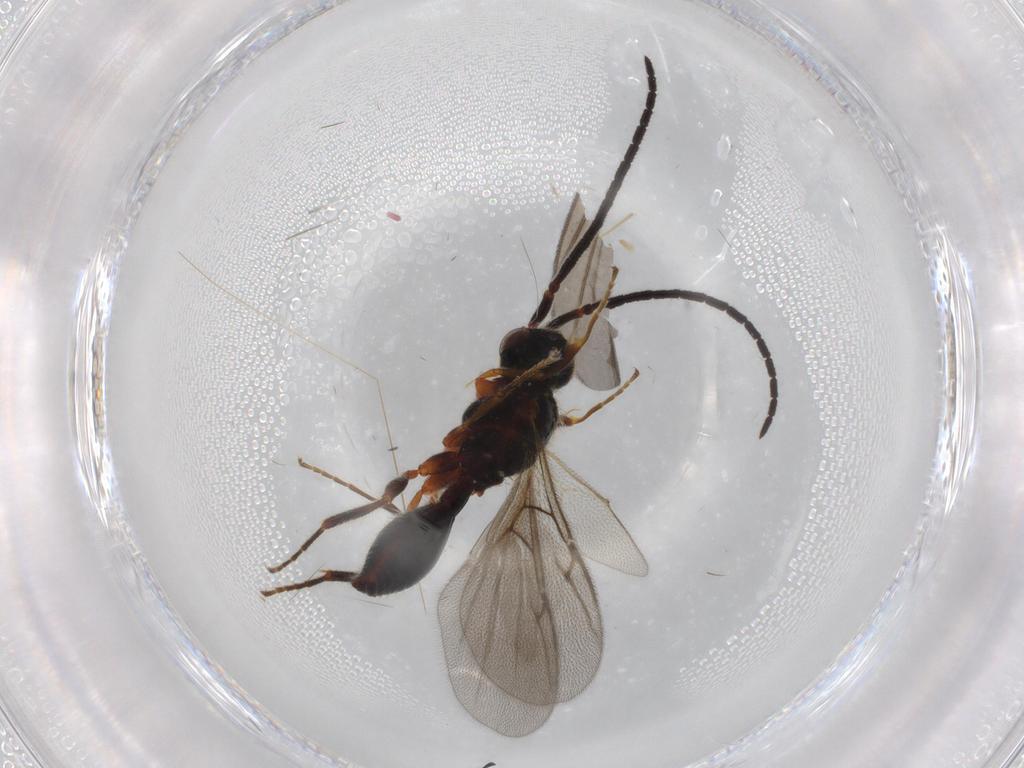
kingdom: Animalia
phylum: Arthropoda
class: Insecta
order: Hymenoptera
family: Diapriidae
